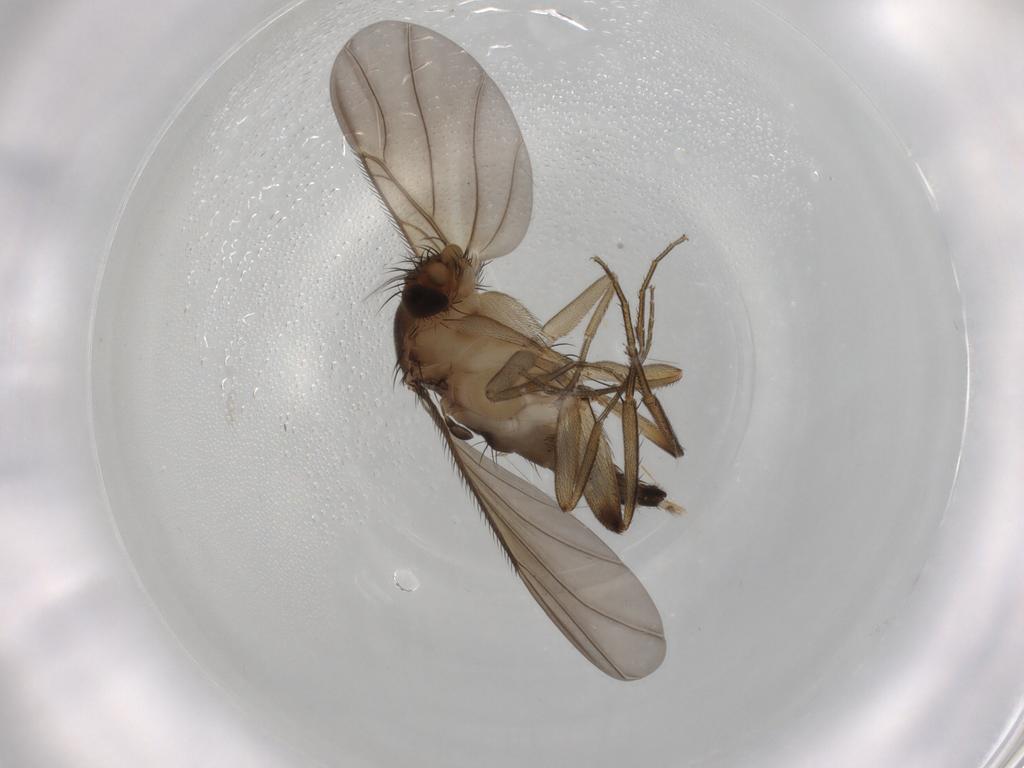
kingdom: Animalia
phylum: Arthropoda
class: Insecta
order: Diptera
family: Phoridae
